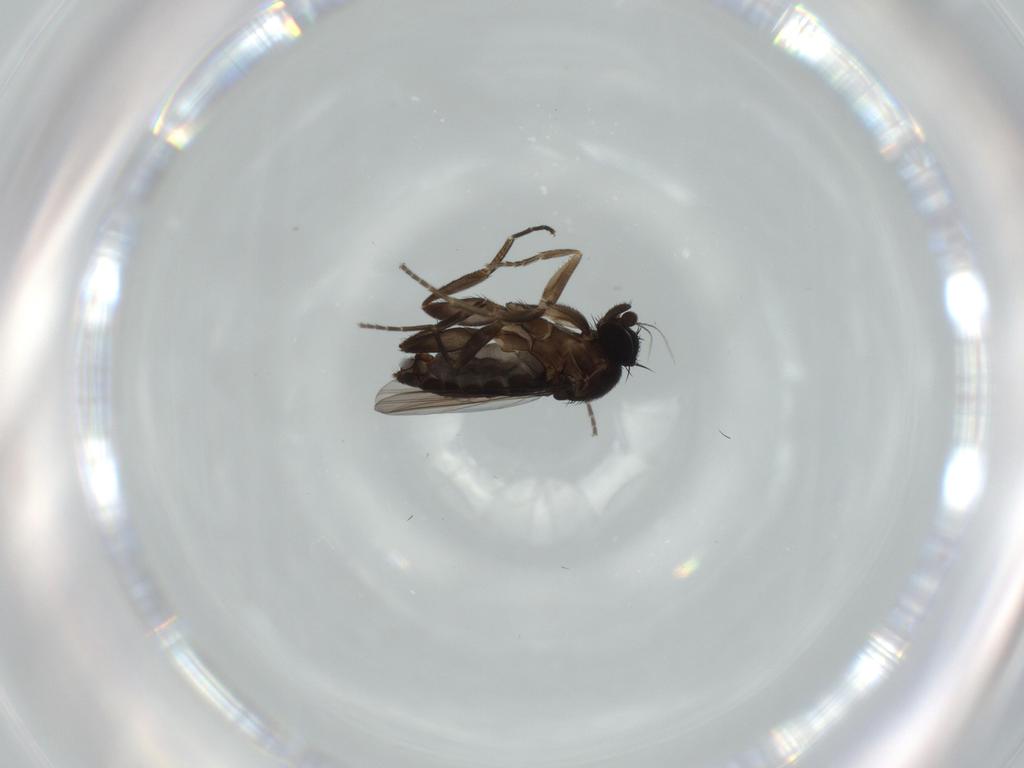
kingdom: Animalia
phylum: Arthropoda
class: Insecta
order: Diptera
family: Phoridae
